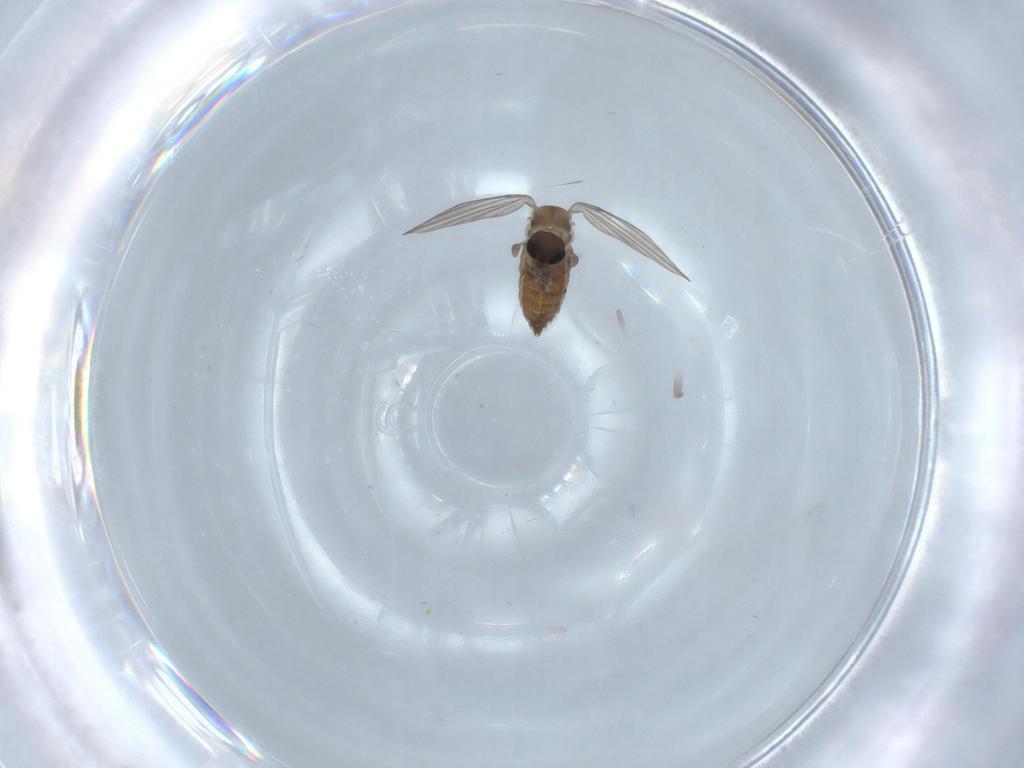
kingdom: Animalia
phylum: Arthropoda
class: Insecta
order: Diptera
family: Psychodidae
